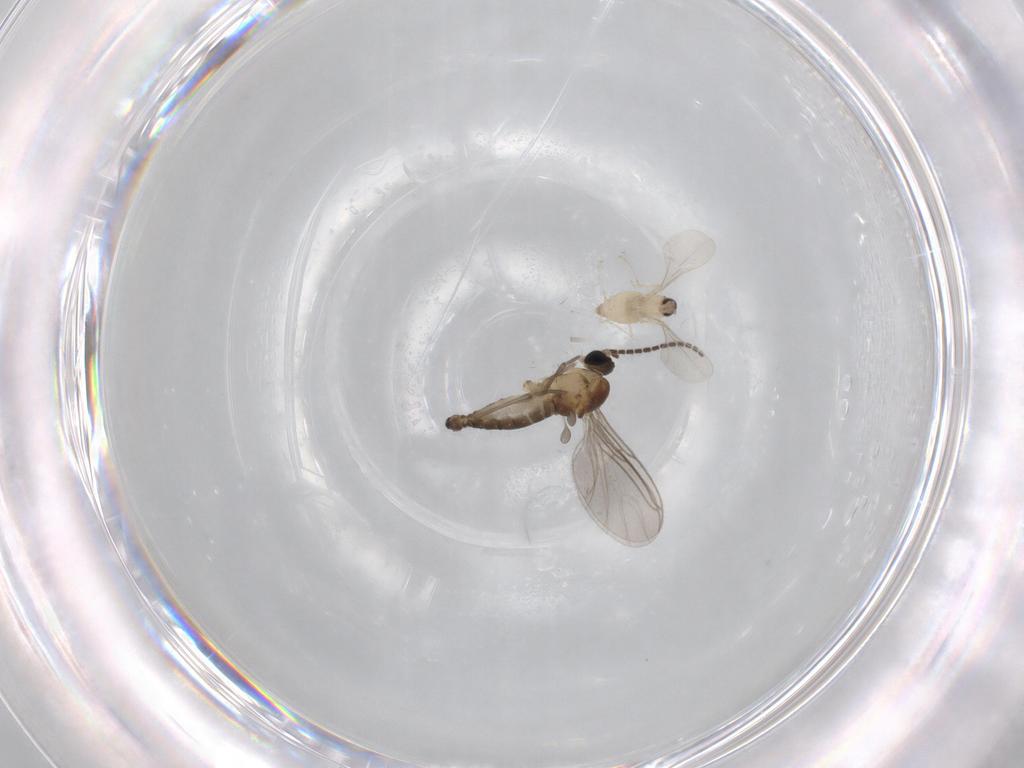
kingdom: Animalia
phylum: Arthropoda
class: Insecta
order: Diptera
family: Cecidomyiidae
